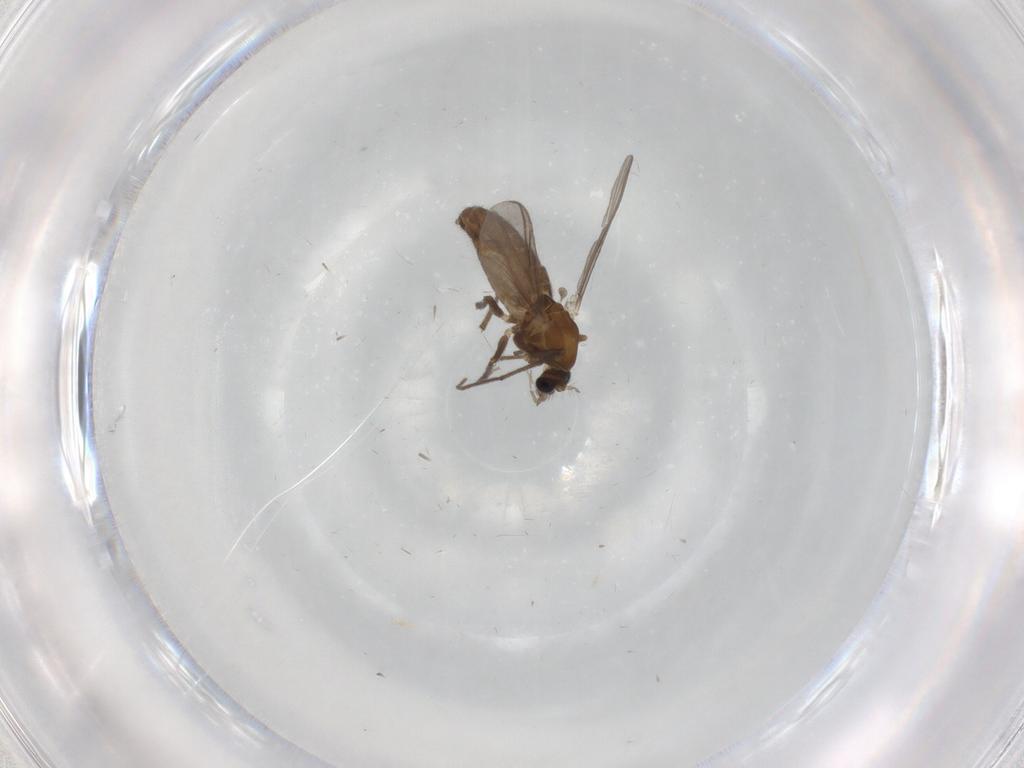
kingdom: Animalia
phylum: Arthropoda
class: Insecta
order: Diptera
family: Chironomidae
